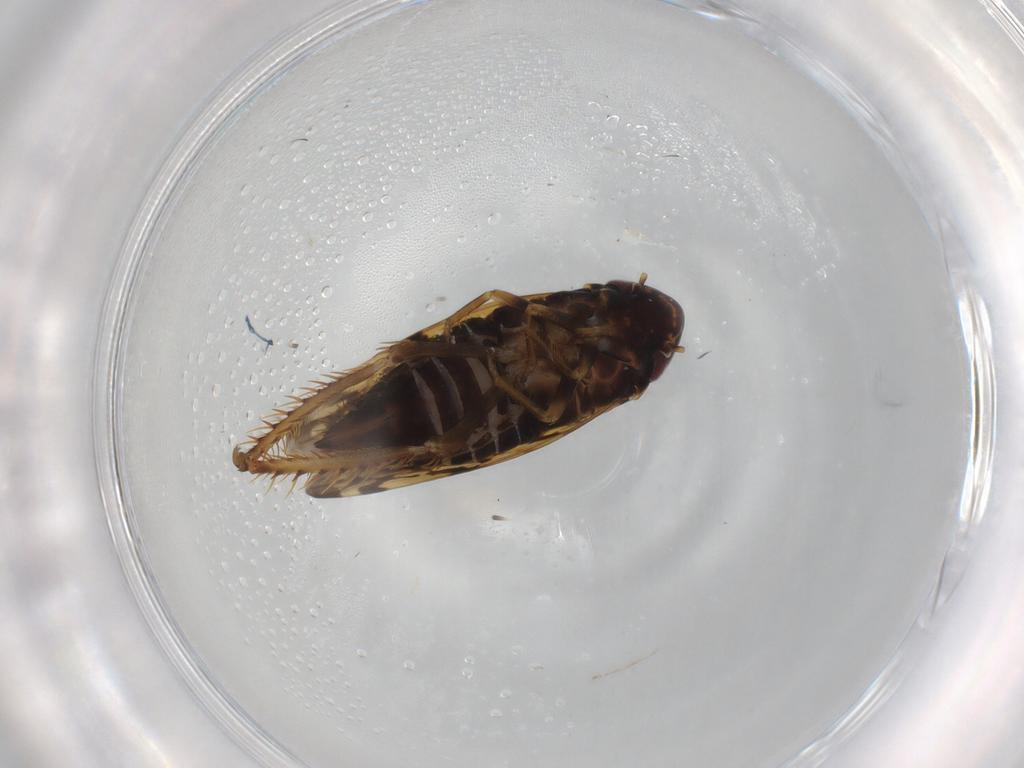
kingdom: Animalia
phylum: Arthropoda
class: Insecta
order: Hemiptera
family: Cicadellidae
